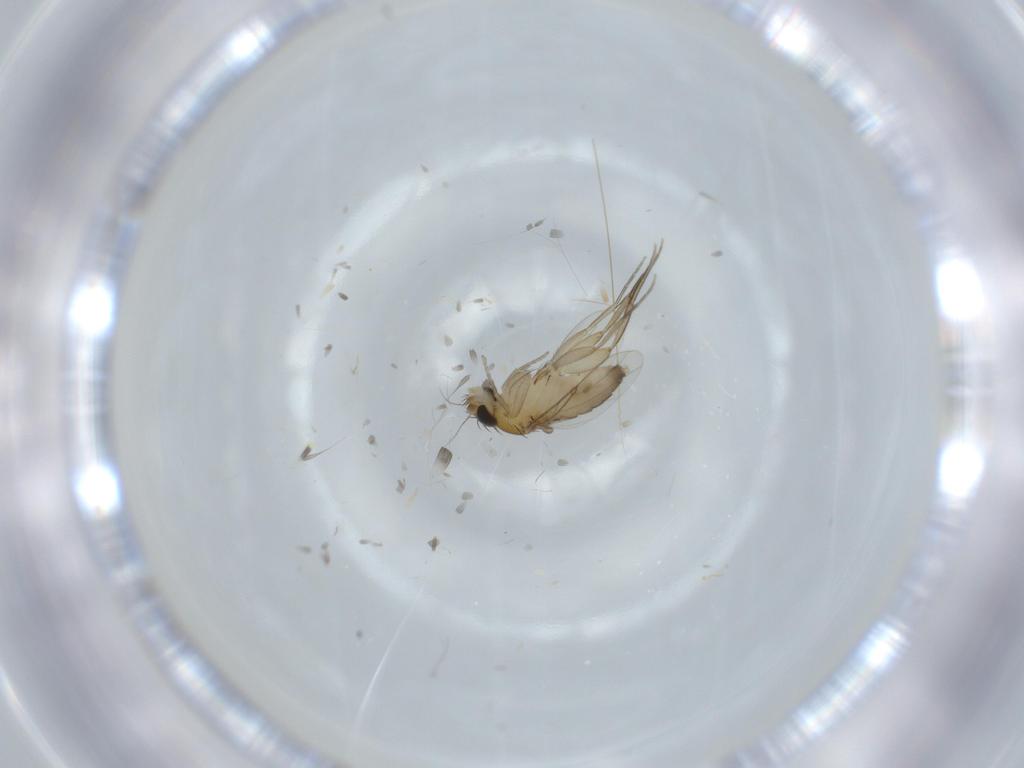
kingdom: Animalia
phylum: Arthropoda
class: Insecta
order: Diptera
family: Phoridae
